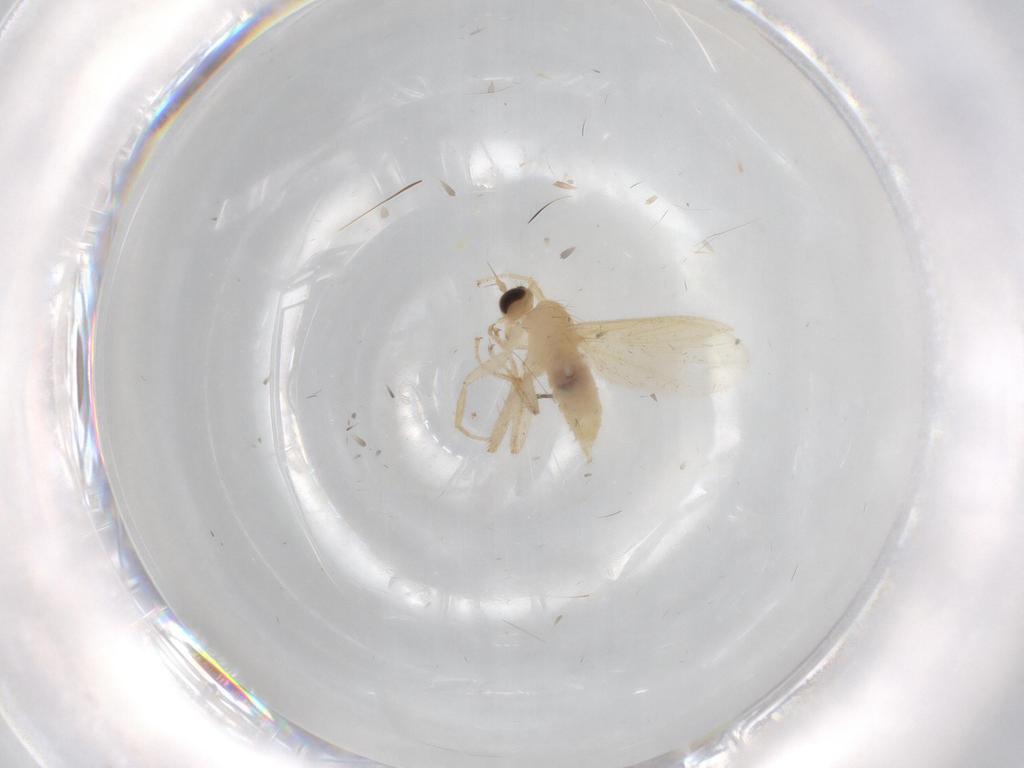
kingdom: Animalia
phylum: Arthropoda
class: Insecta
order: Diptera
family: Hybotidae
